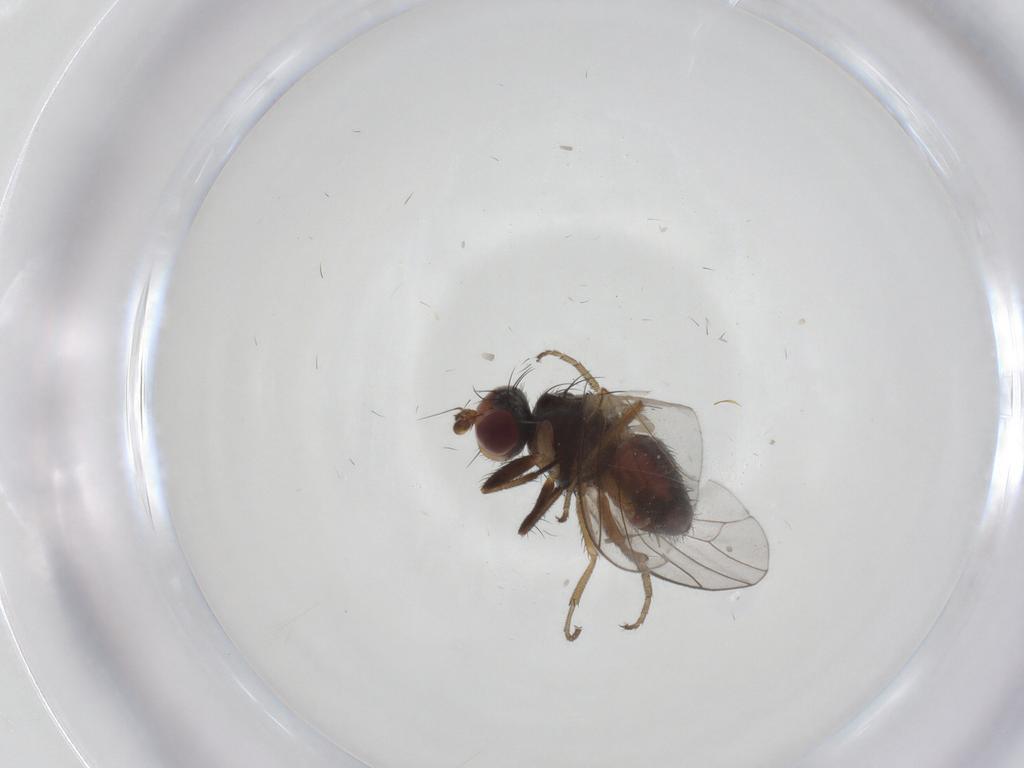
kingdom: Animalia
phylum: Arthropoda
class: Insecta
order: Diptera
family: Heleomyzidae
